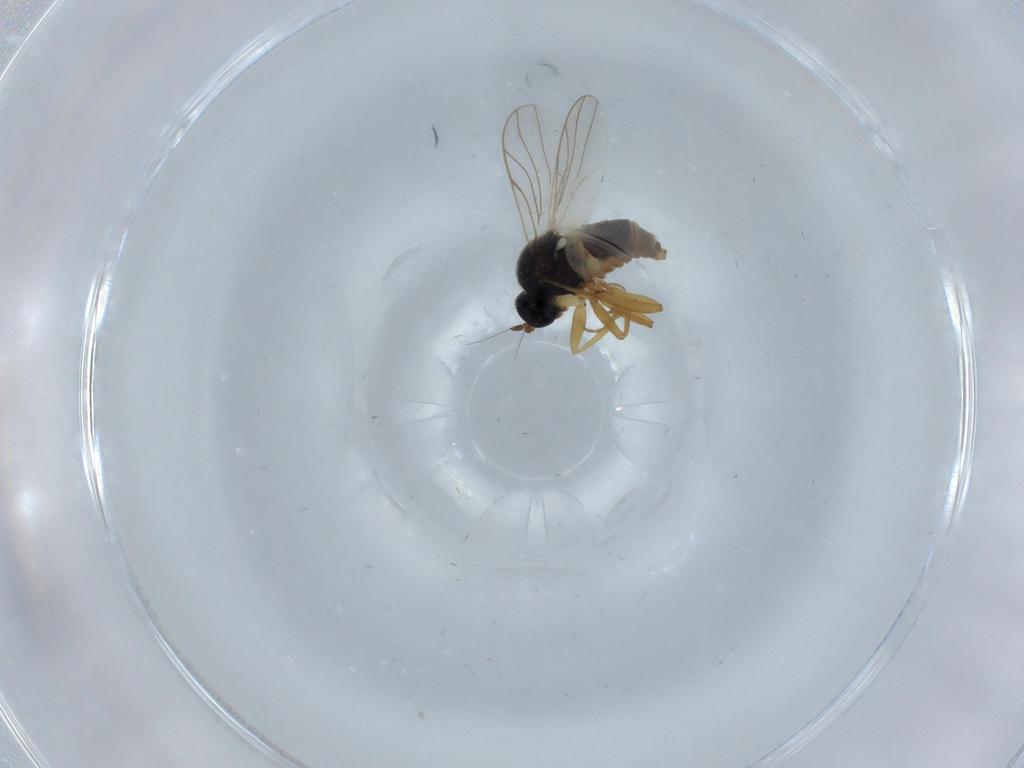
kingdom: Animalia
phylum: Arthropoda
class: Insecta
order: Diptera
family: Hybotidae
